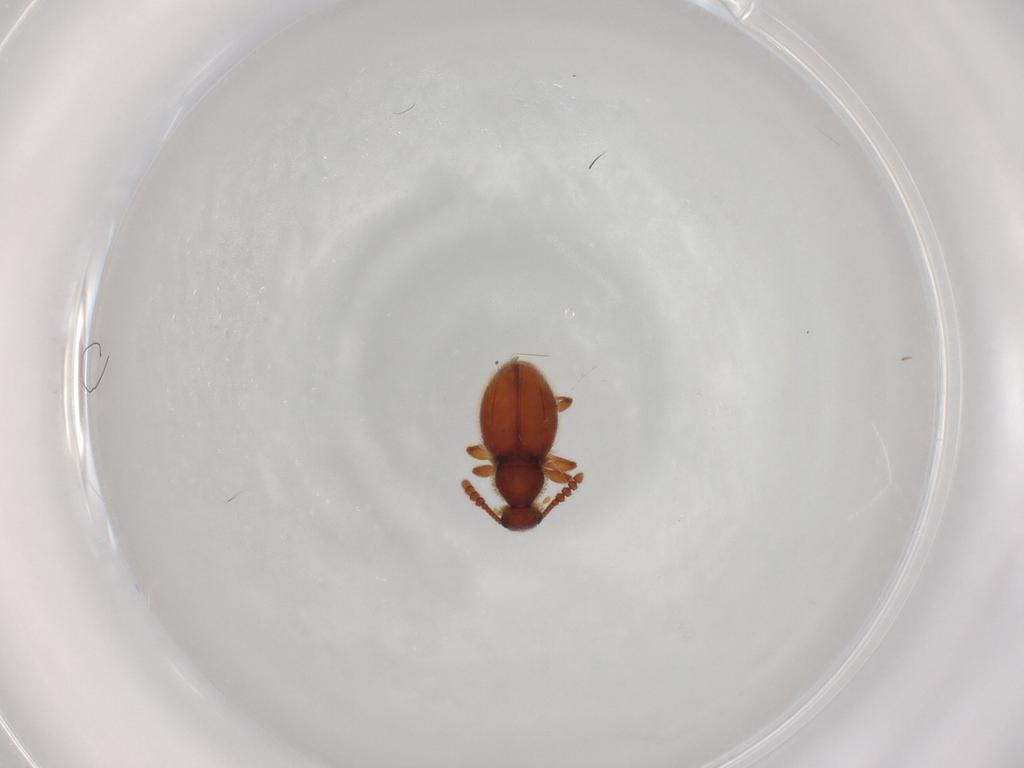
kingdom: Animalia
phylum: Arthropoda
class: Insecta
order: Coleoptera
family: Staphylinidae
